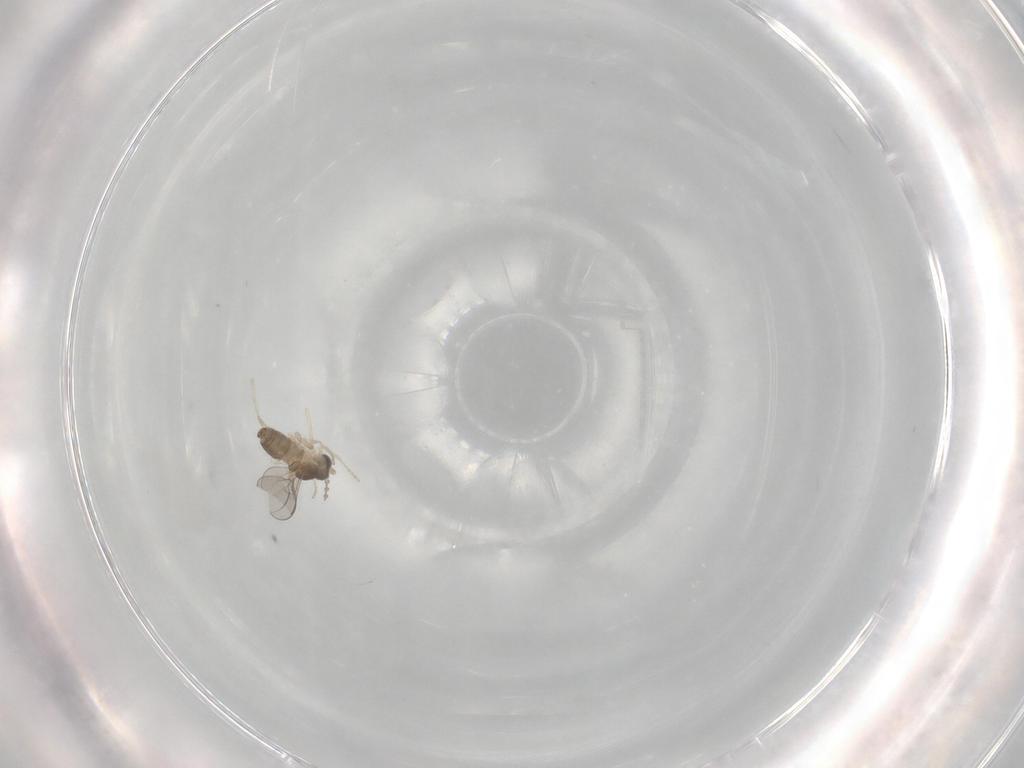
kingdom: Animalia
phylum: Arthropoda
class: Insecta
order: Diptera
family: Cecidomyiidae
